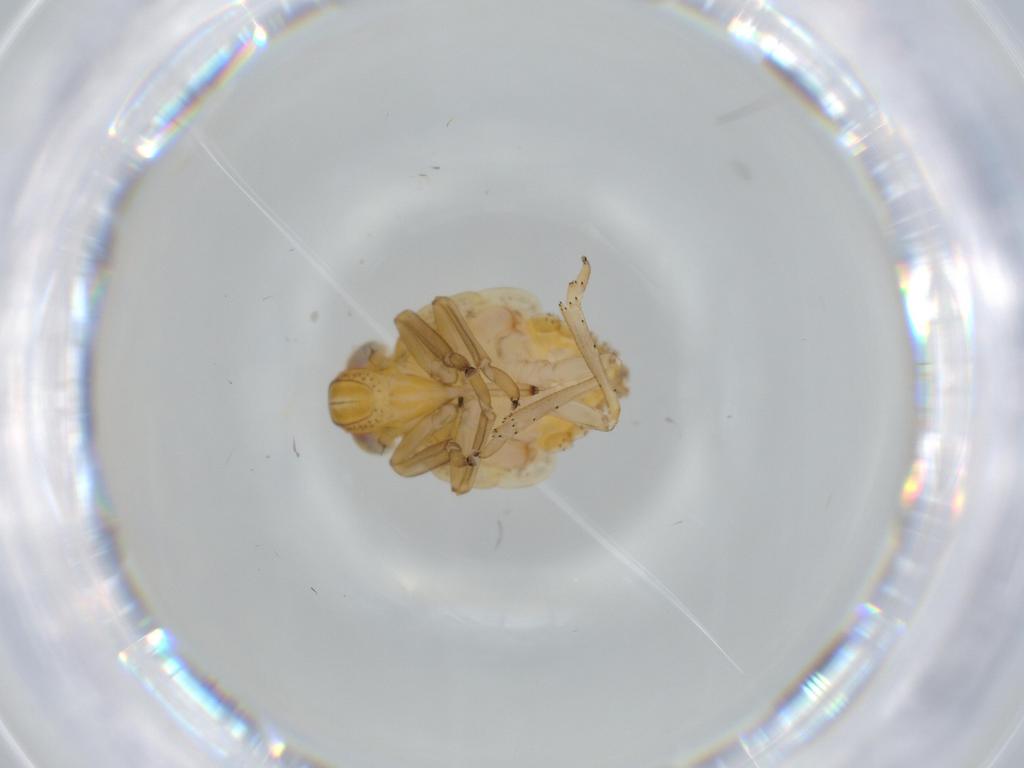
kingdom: Animalia
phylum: Arthropoda
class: Insecta
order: Hemiptera
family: Issidae
